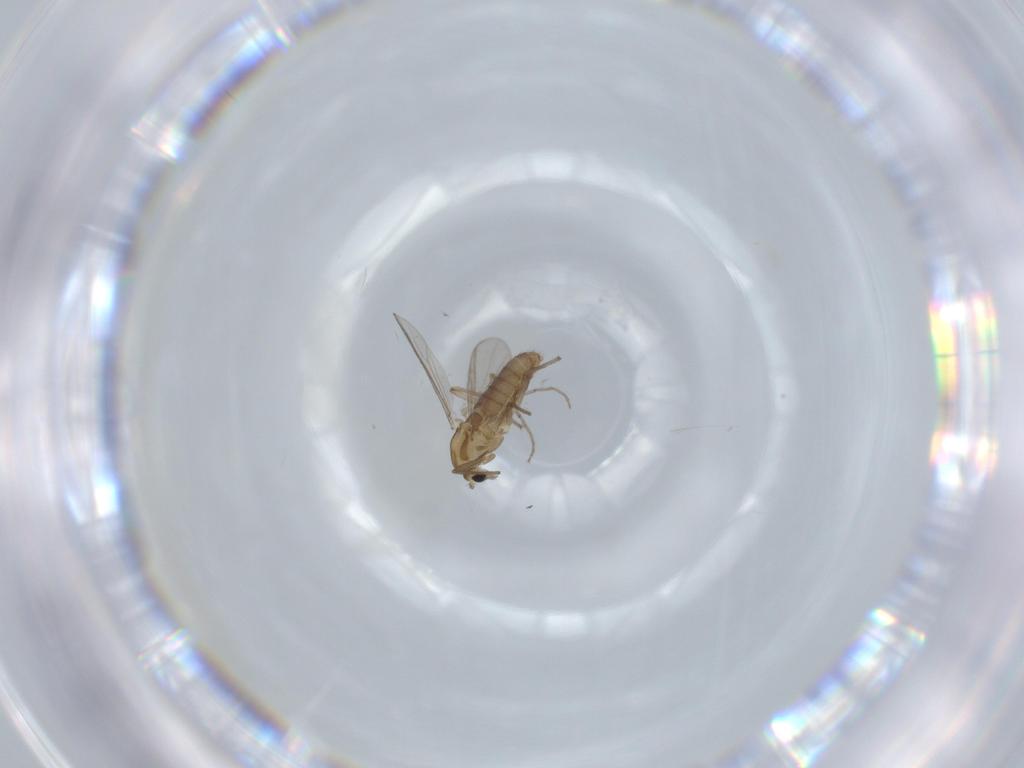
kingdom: Animalia
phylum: Arthropoda
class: Insecta
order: Diptera
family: Chironomidae
